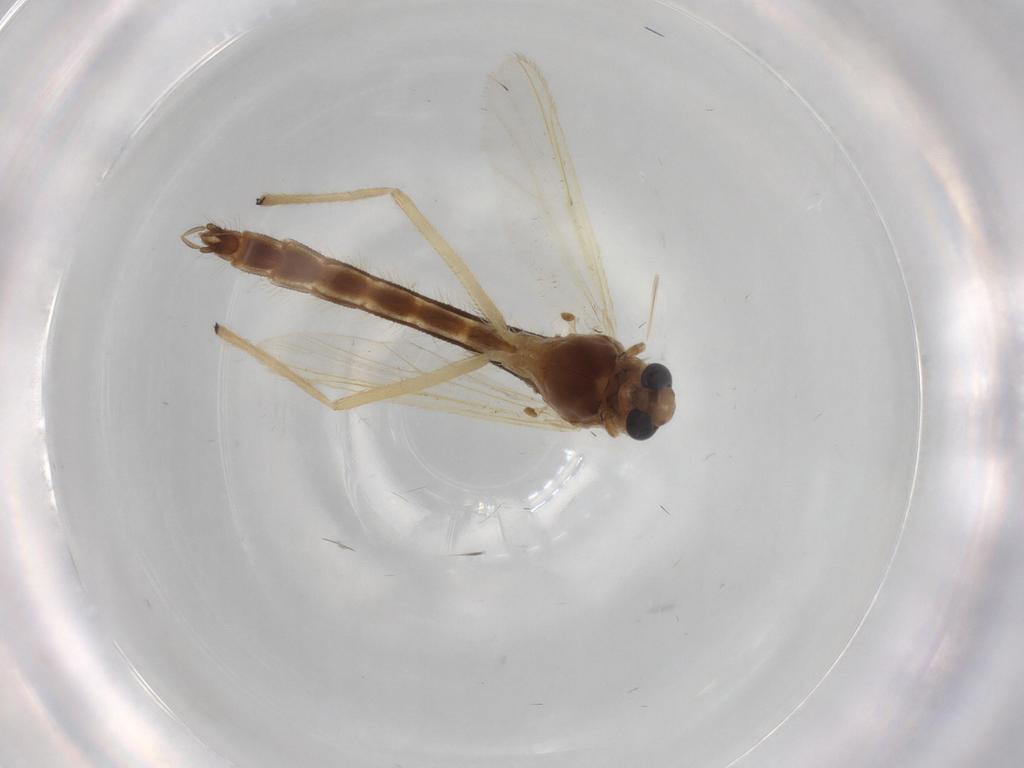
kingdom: Animalia
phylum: Arthropoda
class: Insecta
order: Diptera
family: Chironomidae
